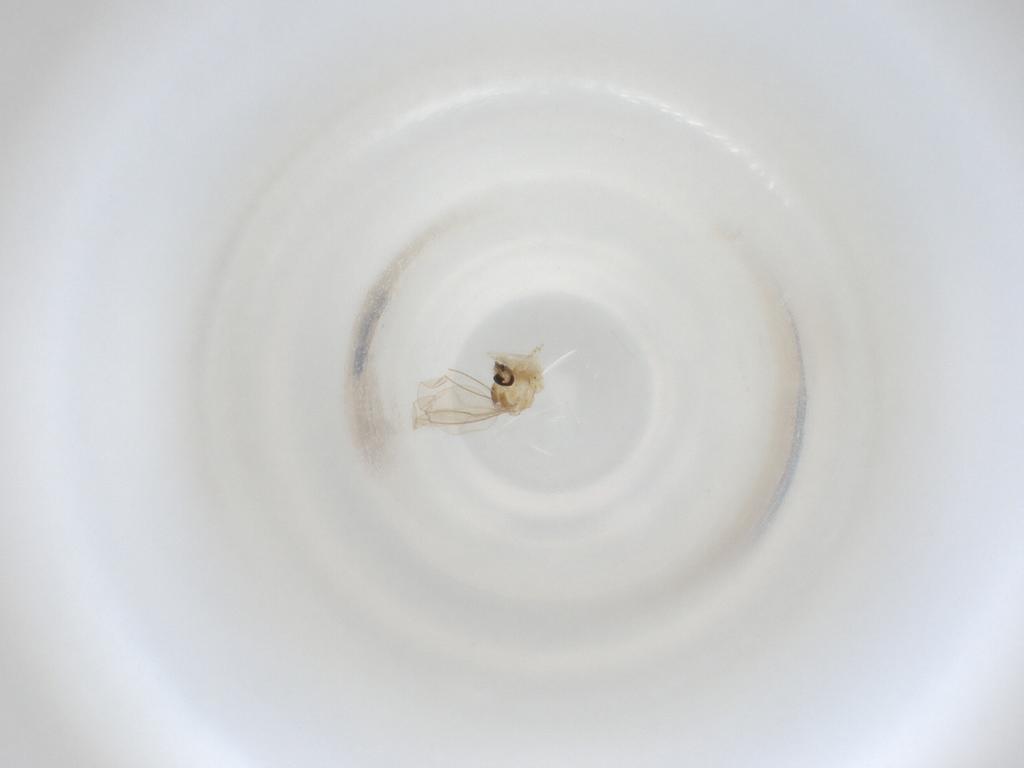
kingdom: Animalia
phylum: Arthropoda
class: Insecta
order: Diptera
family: Cecidomyiidae
